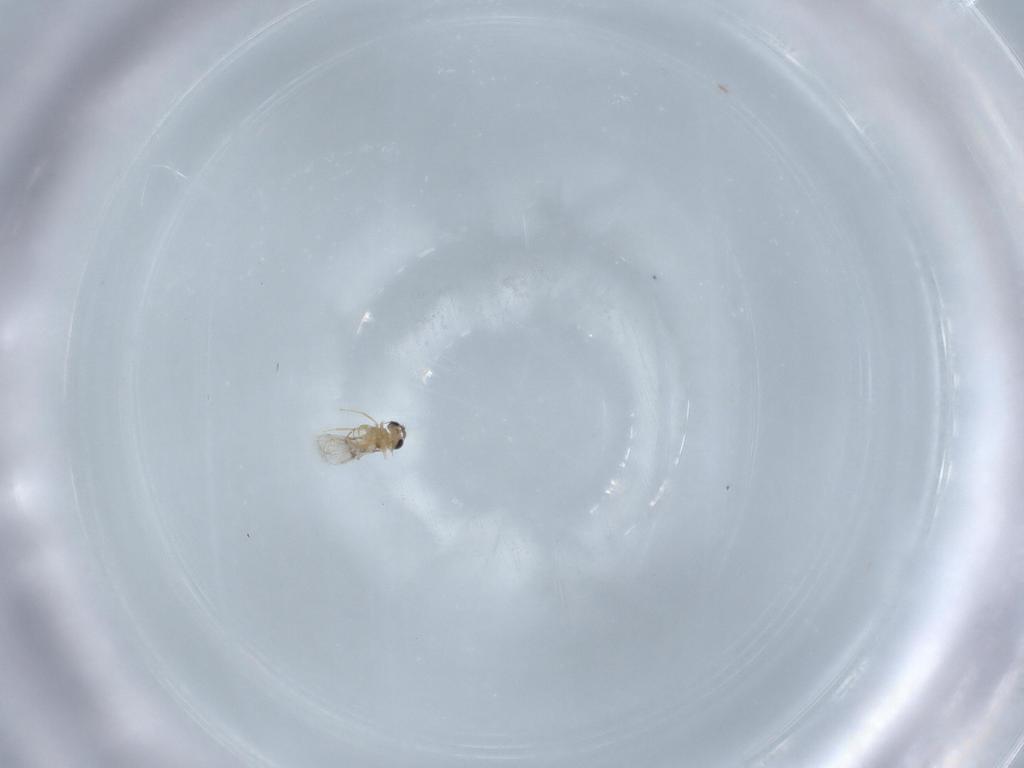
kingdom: Animalia
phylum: Arthropoda
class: Insecta
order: Hymenoptera
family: Trichogrammatidae
